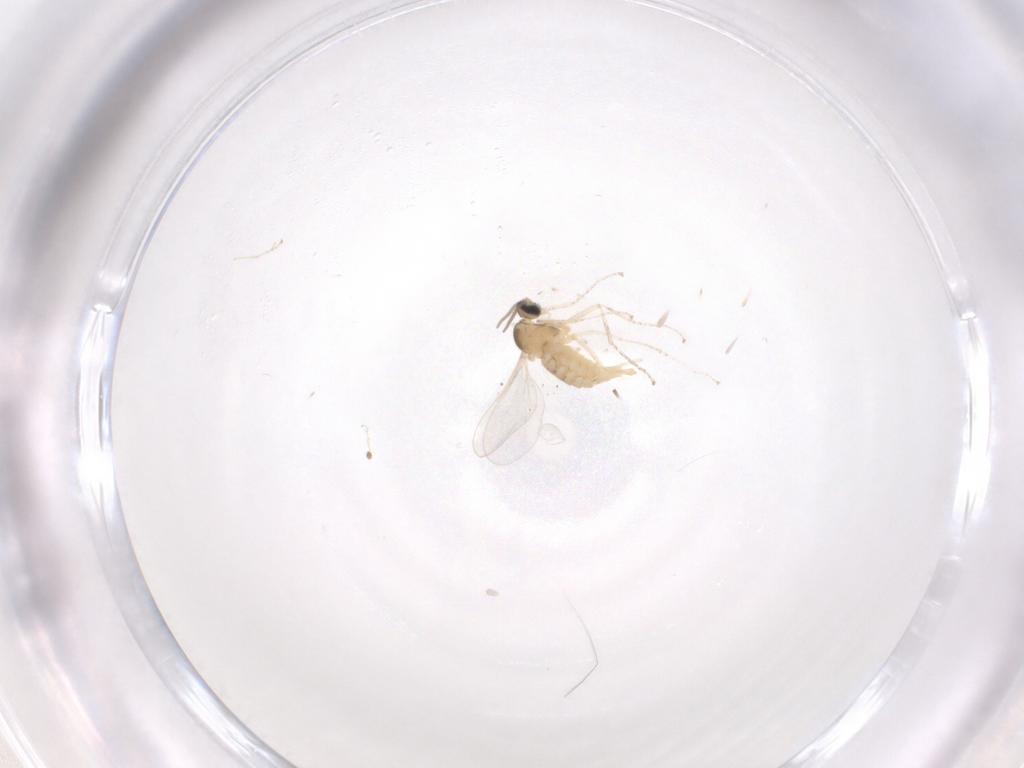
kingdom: Animalia
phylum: Arthropoda
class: Insecta
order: Diptera
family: Cecidomyiidae
